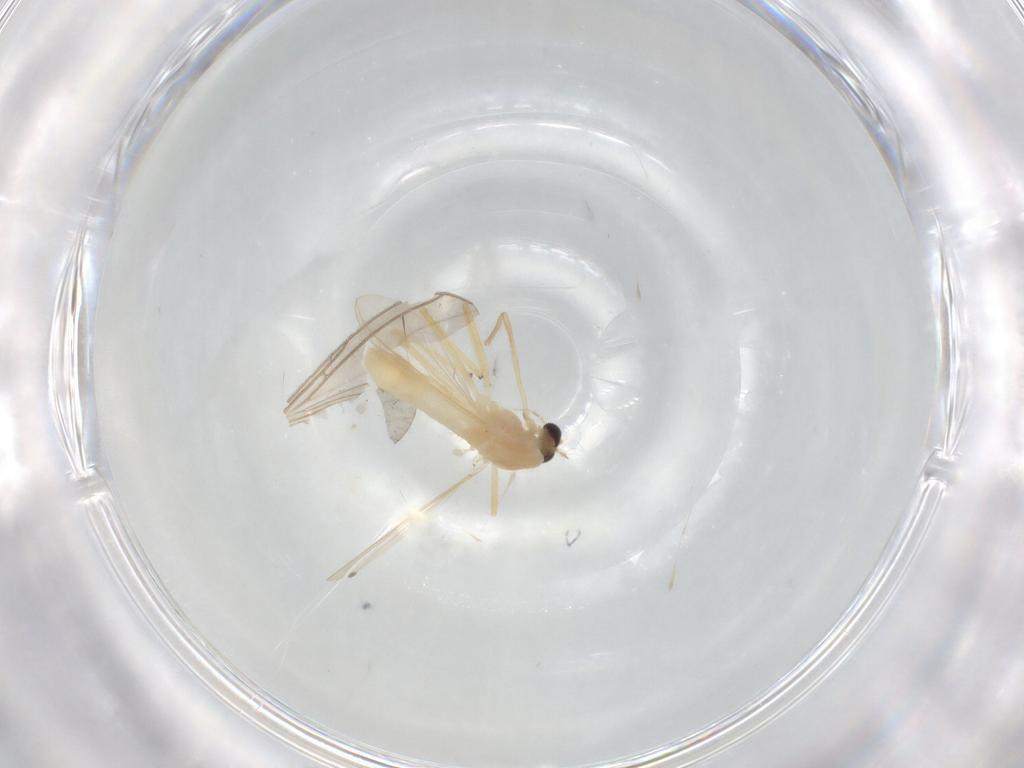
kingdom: Animalia
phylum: Arthropoda
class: Insecta
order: Diptera
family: Chironomidae
